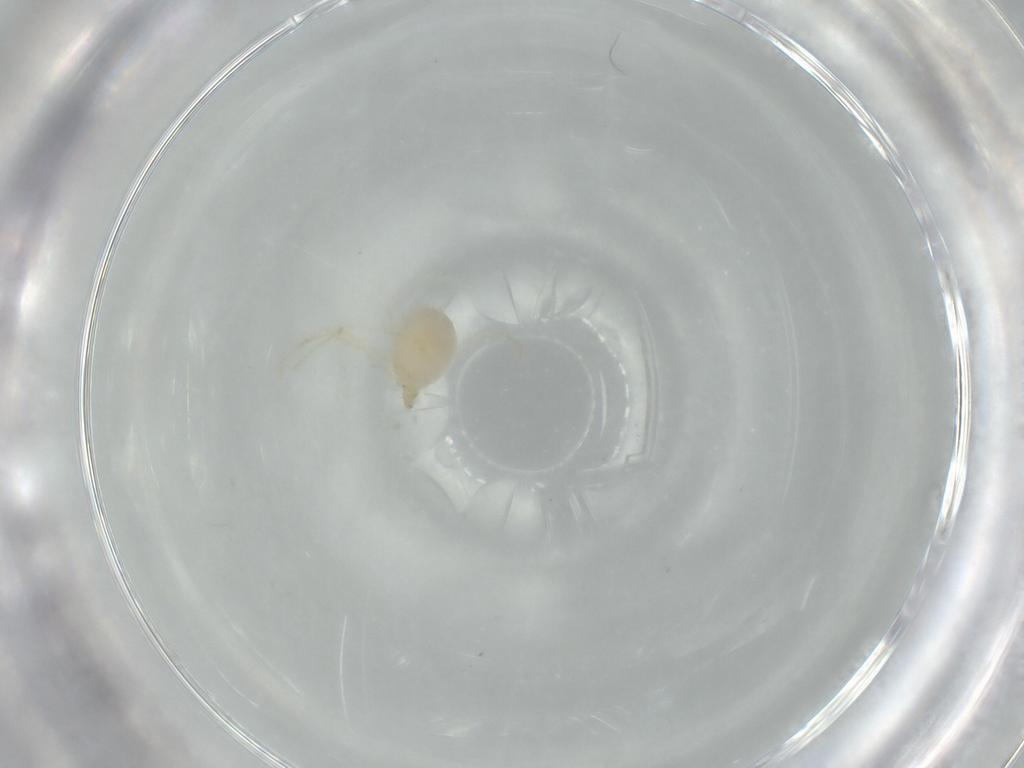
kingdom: Animalia
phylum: Arthropoda
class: Arachnida
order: Trombidiformes
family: Erythraeidae
